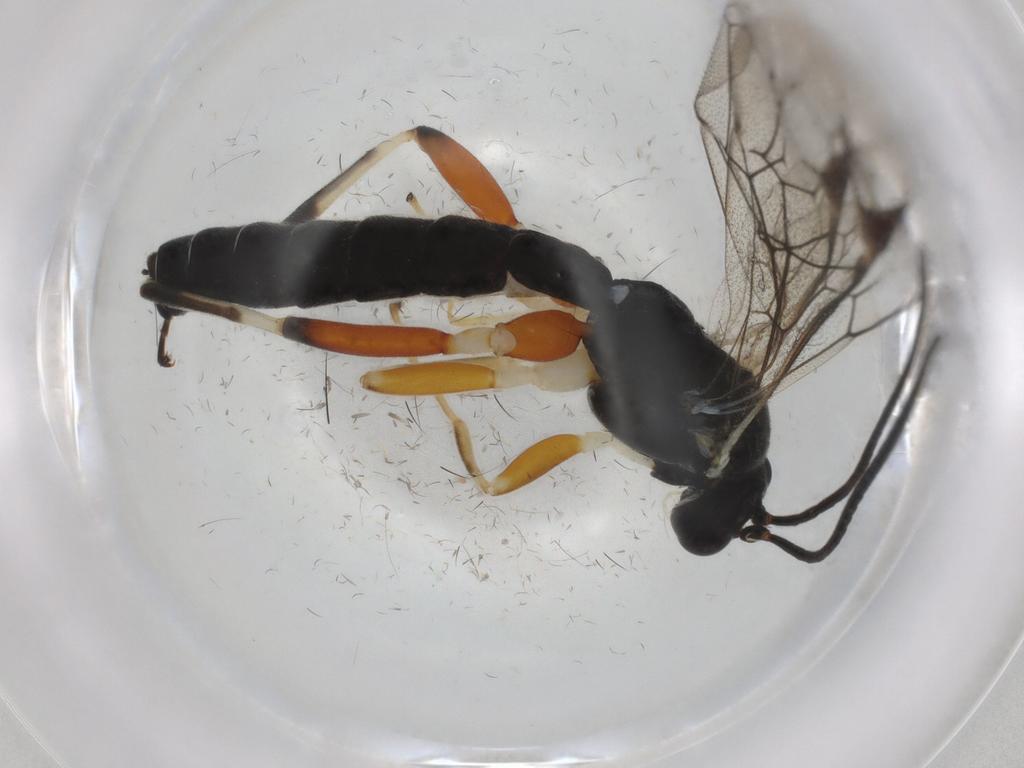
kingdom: Animalia
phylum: Arthropoda
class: Insecta
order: Hymenoptera
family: Ichneumonidae
